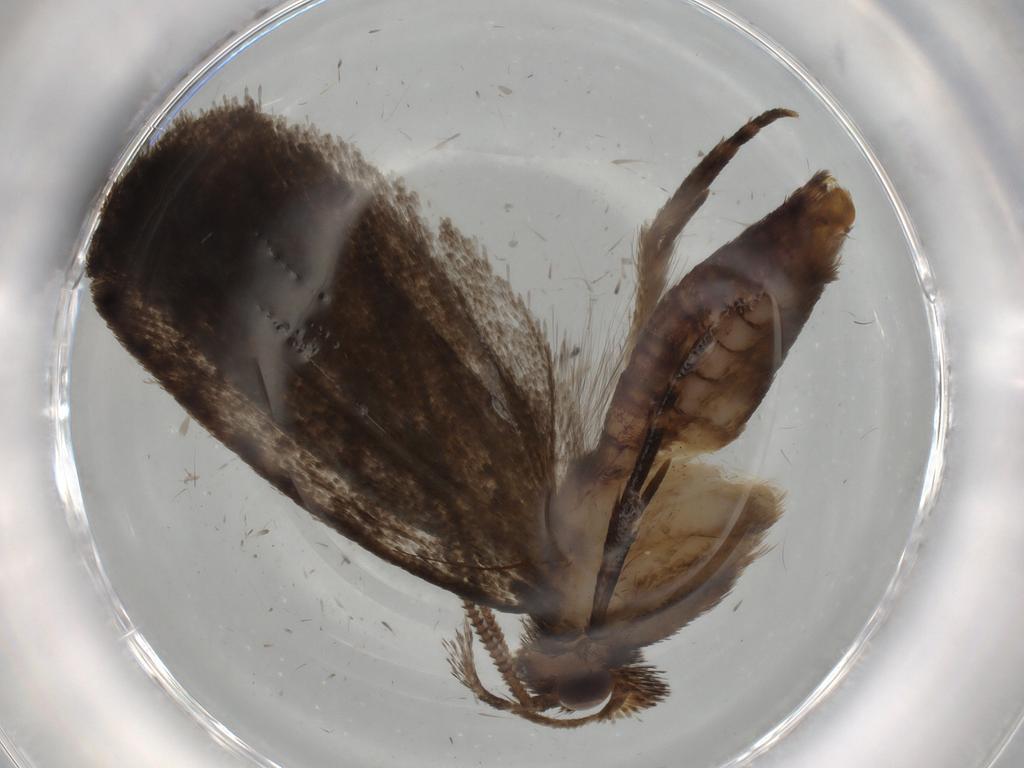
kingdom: Animalia
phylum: Arthropoda
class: Insecta
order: Lepidoptera
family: Tineidae
